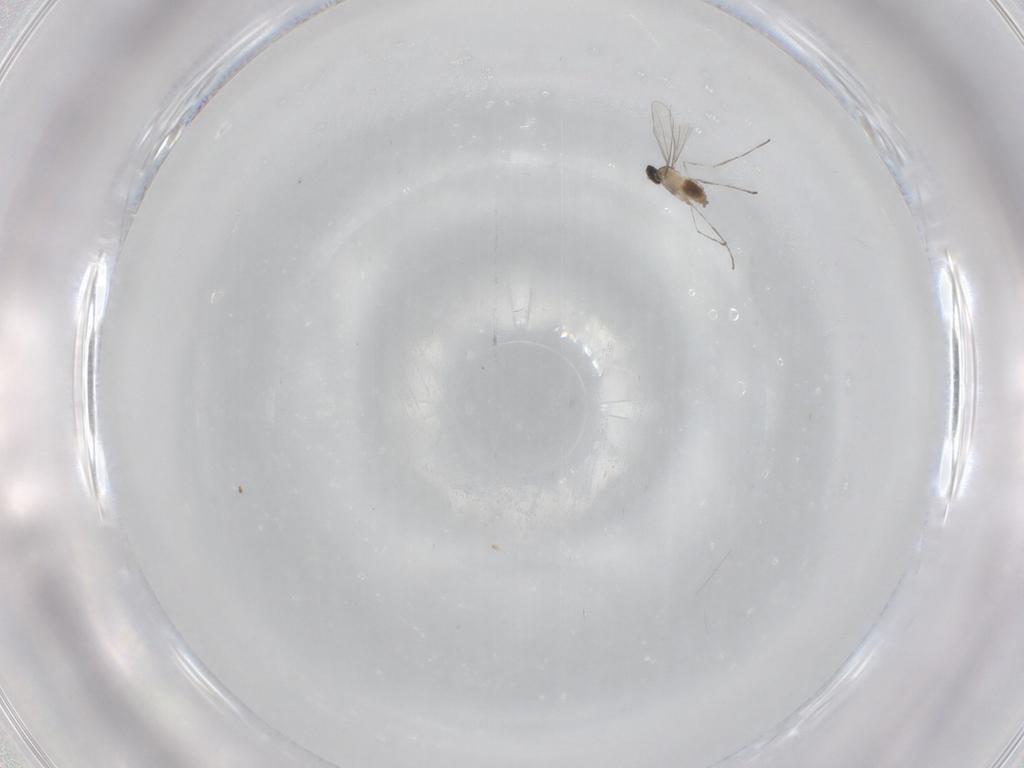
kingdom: Animalia
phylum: Arthropoda
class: Insecta
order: Diptera
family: Cecidomyiidae
